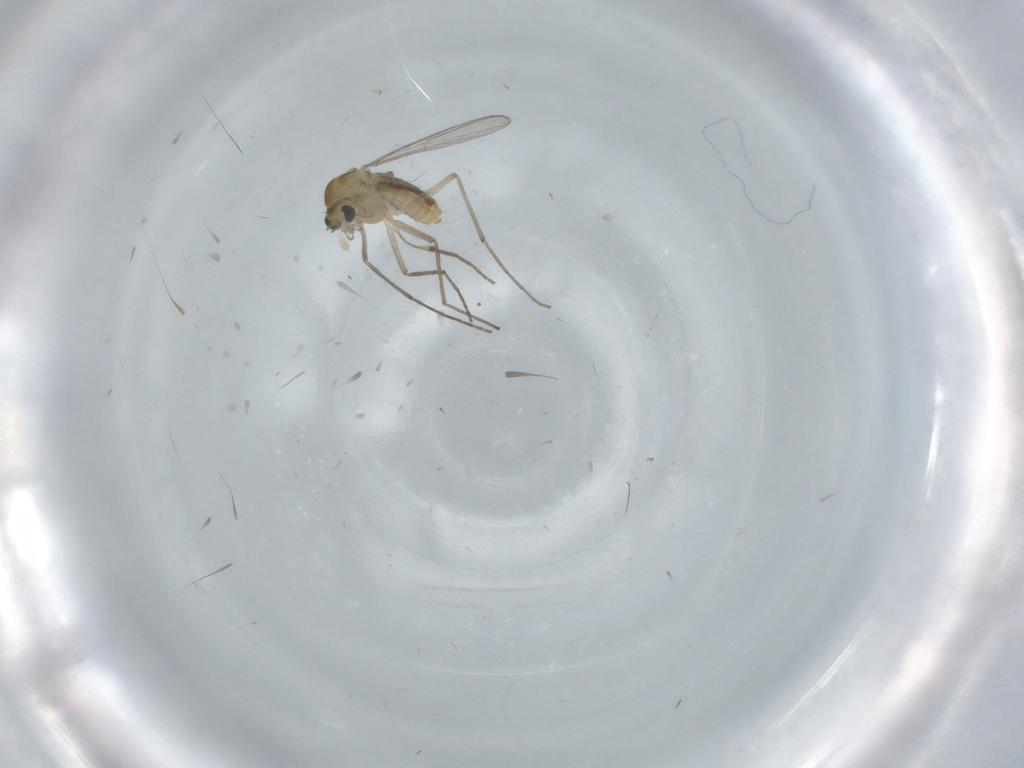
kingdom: Animalia
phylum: Arthropoda
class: Insecta
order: Diptera
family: Chironomidae
